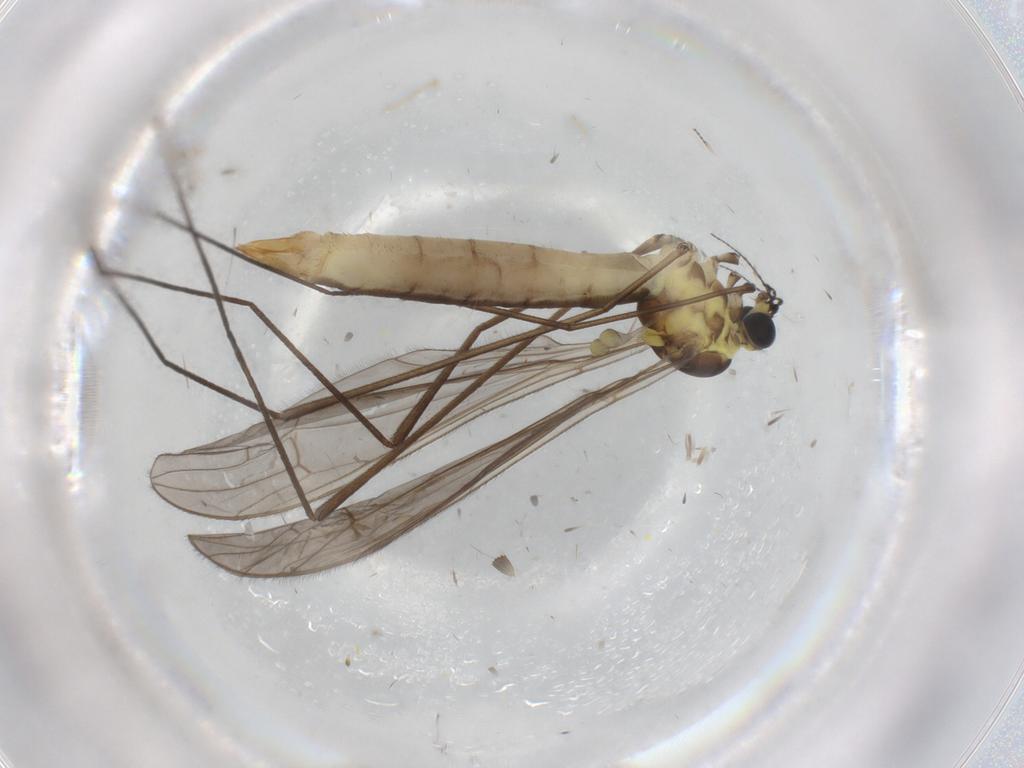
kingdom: Animalia
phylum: Arthropoda
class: Insecta
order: Diptera
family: Limoniidae
